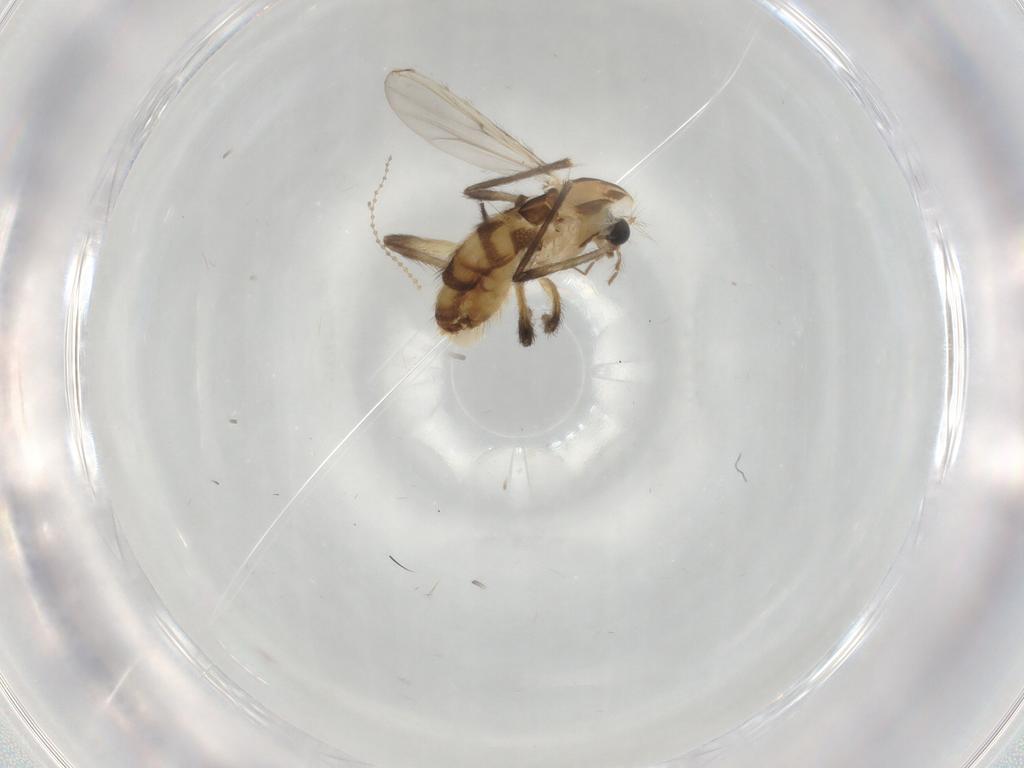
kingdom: Animalia
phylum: Arthropoda
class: Insecta
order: Diptera
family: Chironomidae
